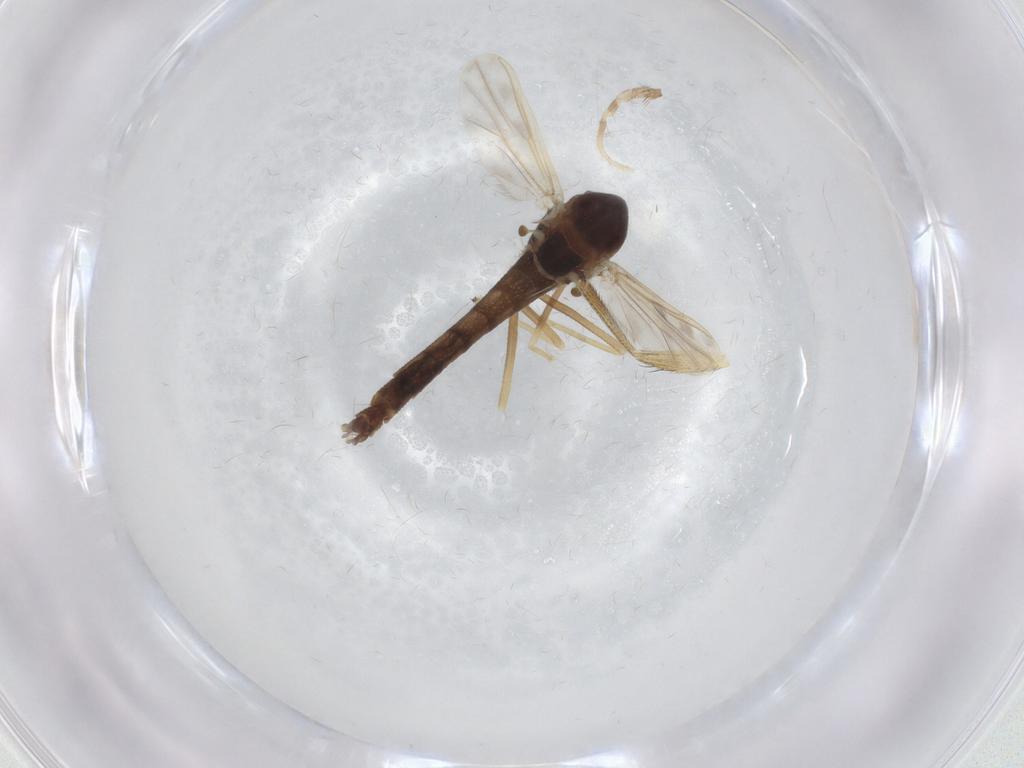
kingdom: Animalia
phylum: Arthropoda
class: Insecta
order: Diptera
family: Chironomidae
